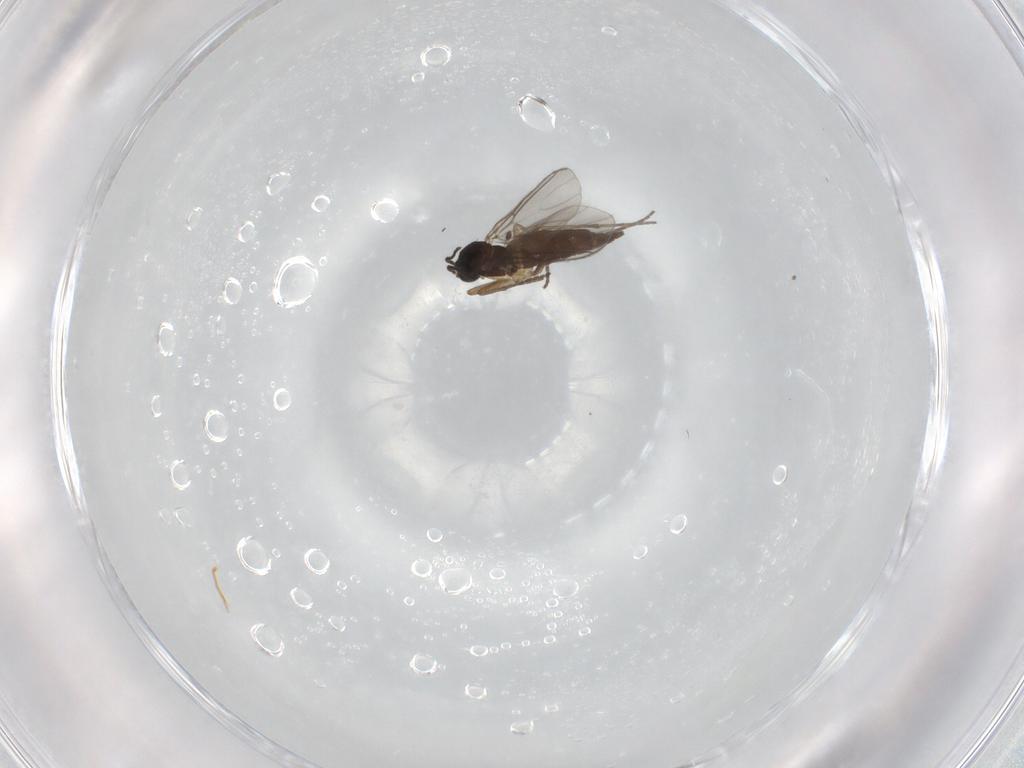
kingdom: Animalia
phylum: Arthropoda
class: Insecta
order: Diptera
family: Sciaridae
